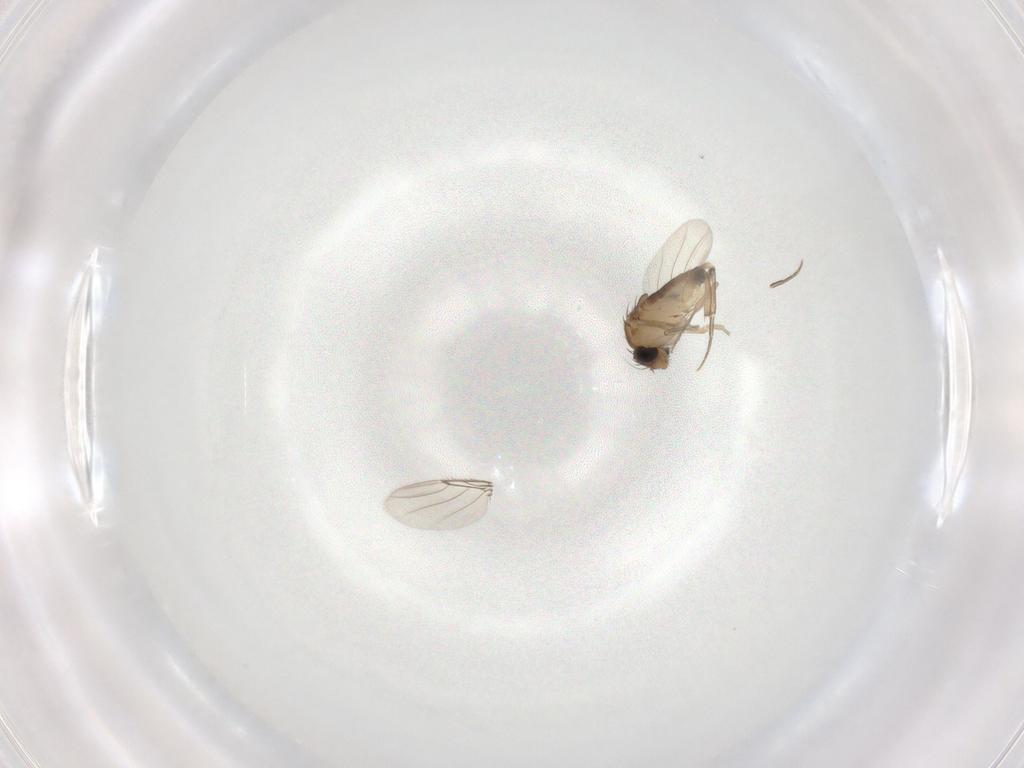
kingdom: Animalia
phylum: Arthropoda
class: Insecta
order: Diptera
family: Phoridae
